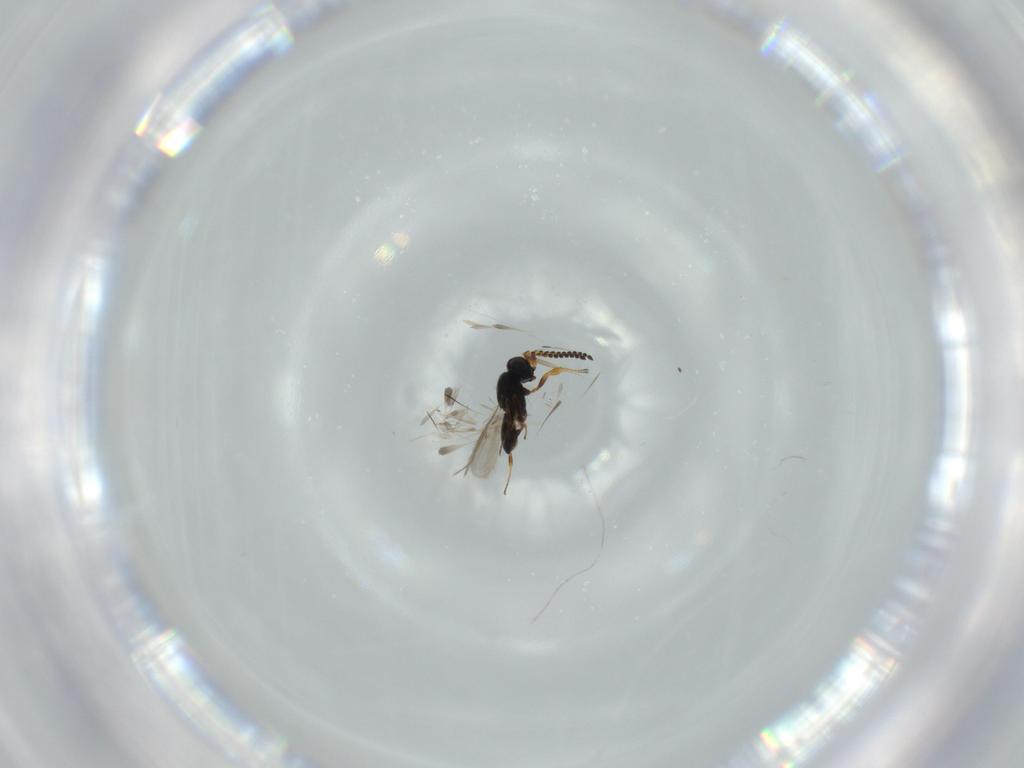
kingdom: Animalia
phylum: Arthropoda
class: Insecta
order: Hymenoptera
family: Scelionidae
